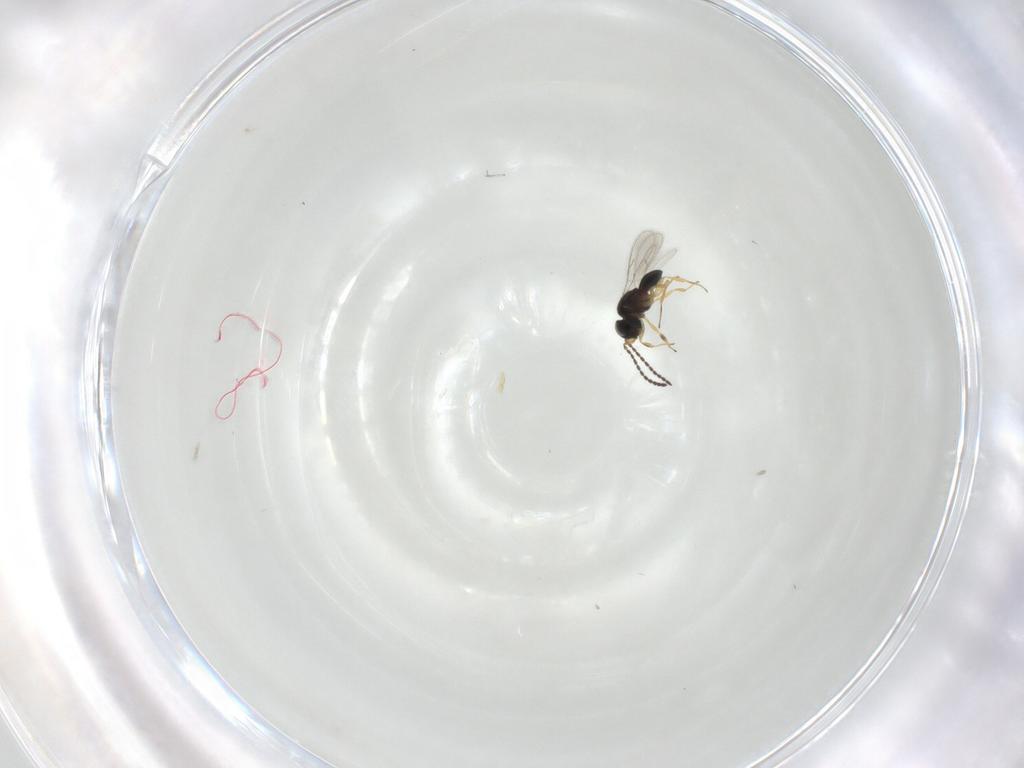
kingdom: Animalia
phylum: Arthropoda
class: Insecta
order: Hymenoptera
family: Scelionidae
